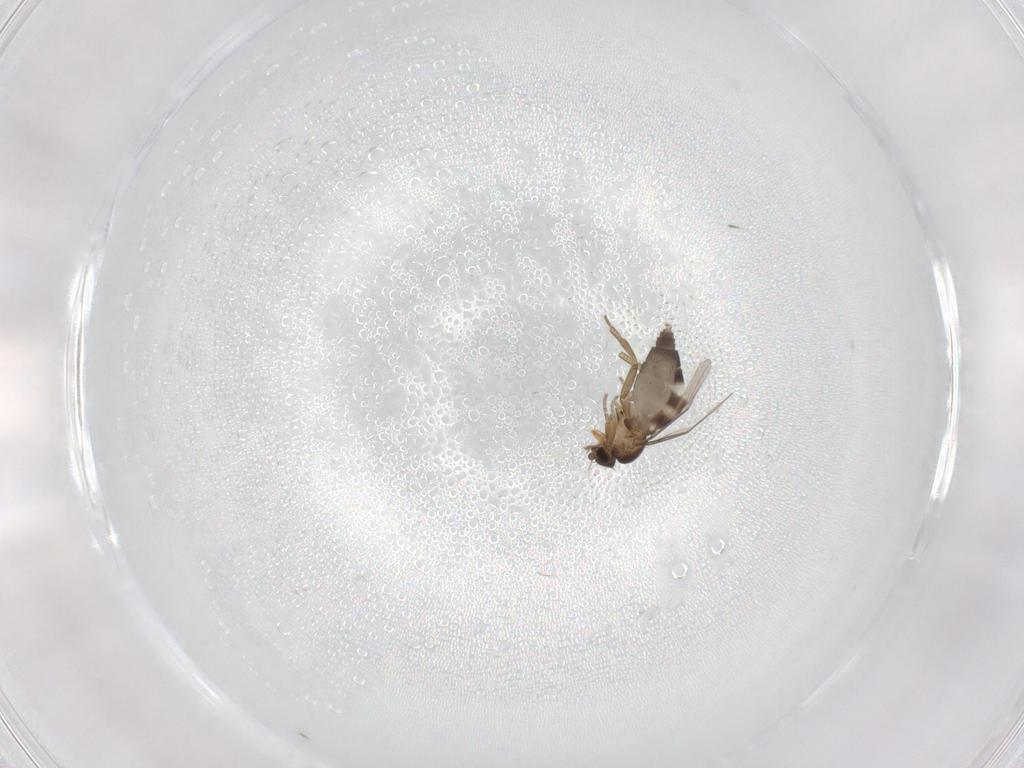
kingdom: Animalia
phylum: Arthropoda
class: Insecta
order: Diptera
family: Phoridae
